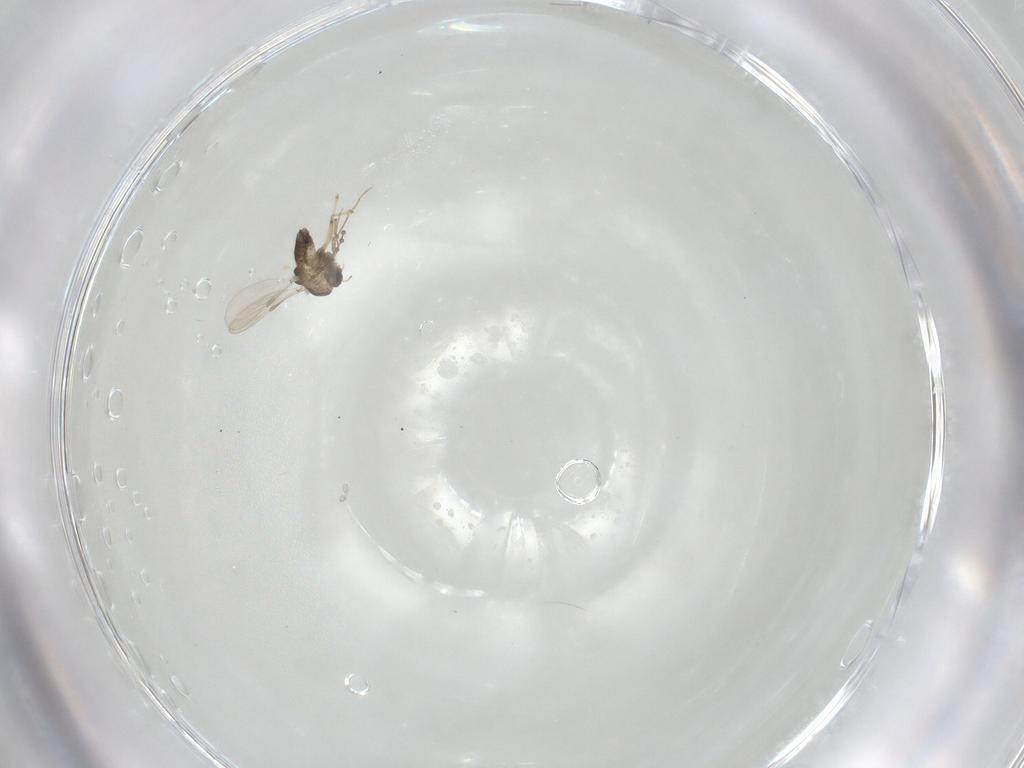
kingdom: Animalia
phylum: Arthropoda
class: Insecta
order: Diptera
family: Chironomidae
